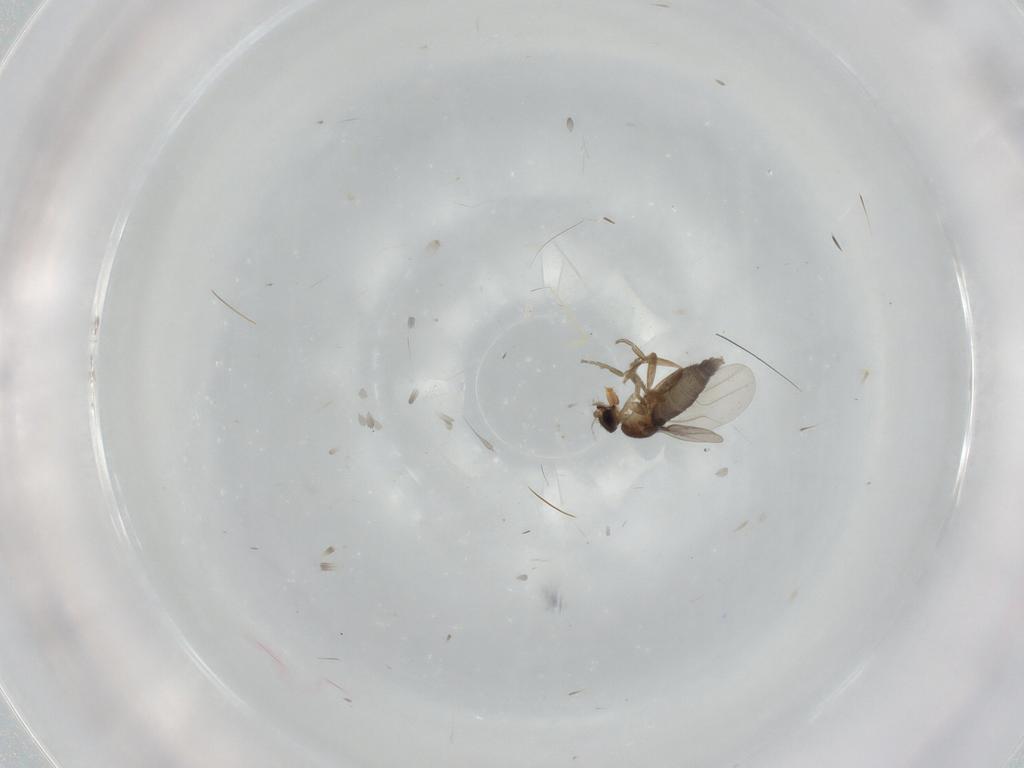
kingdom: Animalia
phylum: Arthropoda
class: Insecta
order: Diptera
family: Phoridae
